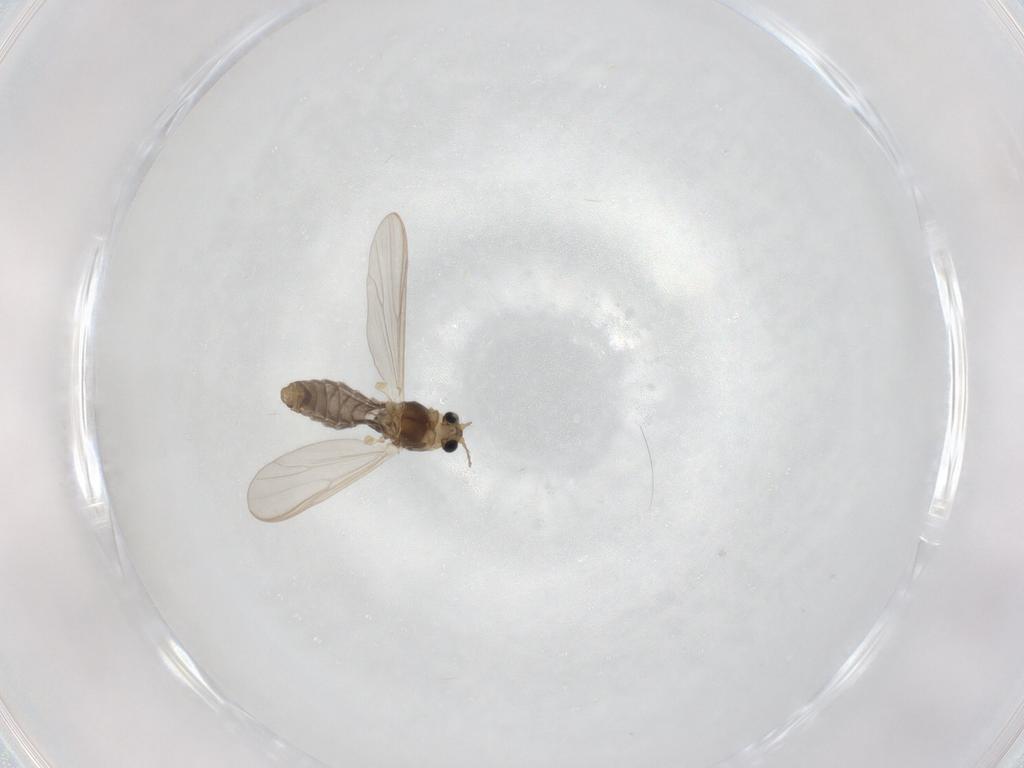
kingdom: Animalia
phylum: Arthropoda
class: Insecta
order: Diptera
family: Chironomidae
